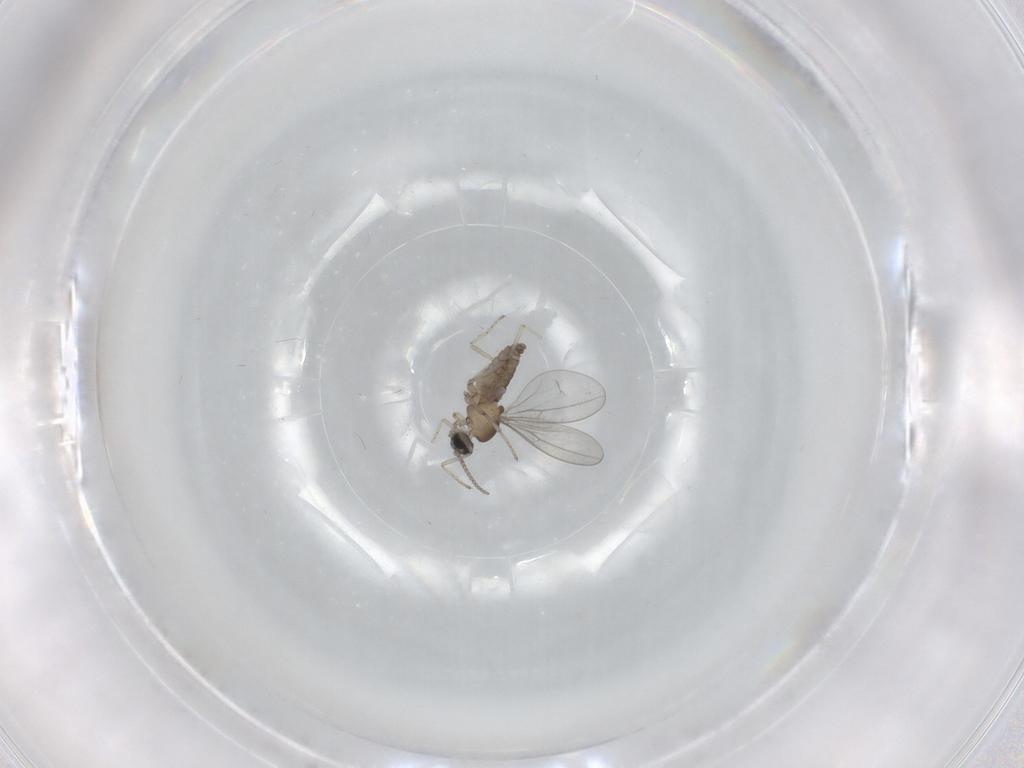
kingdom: Animalia
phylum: Arthropoda
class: Insecta
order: Diptera
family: Cecidomyiidae
